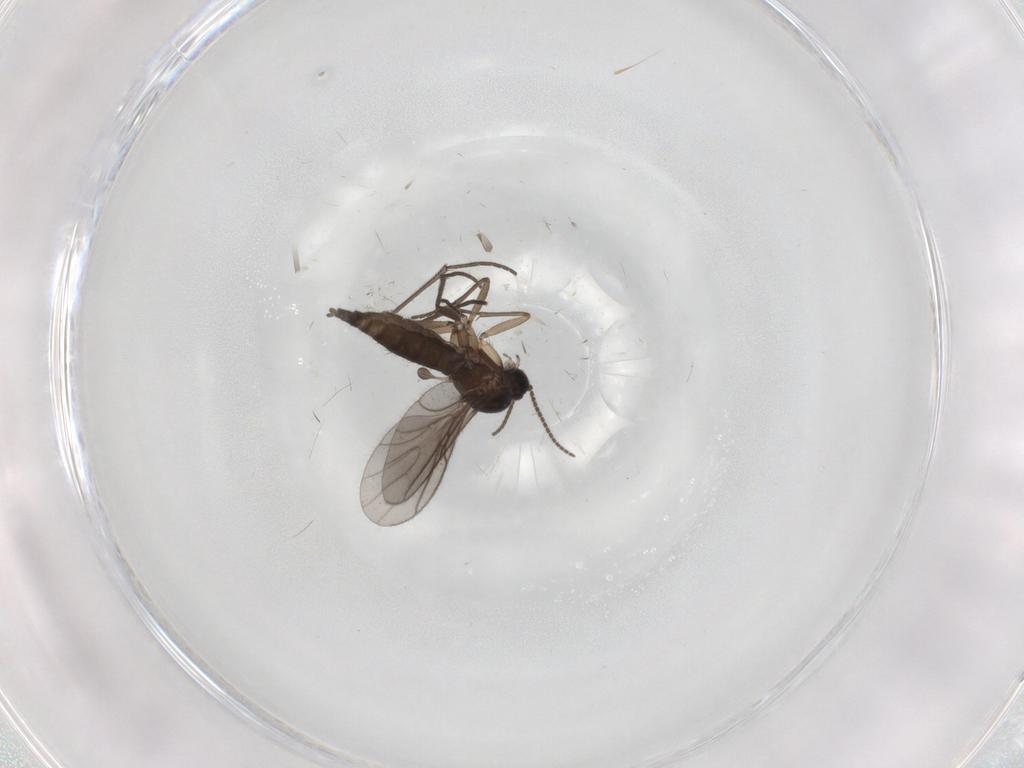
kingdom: Animalia
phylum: Arthropoda
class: Insecta
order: Diptera
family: Sciaridae
